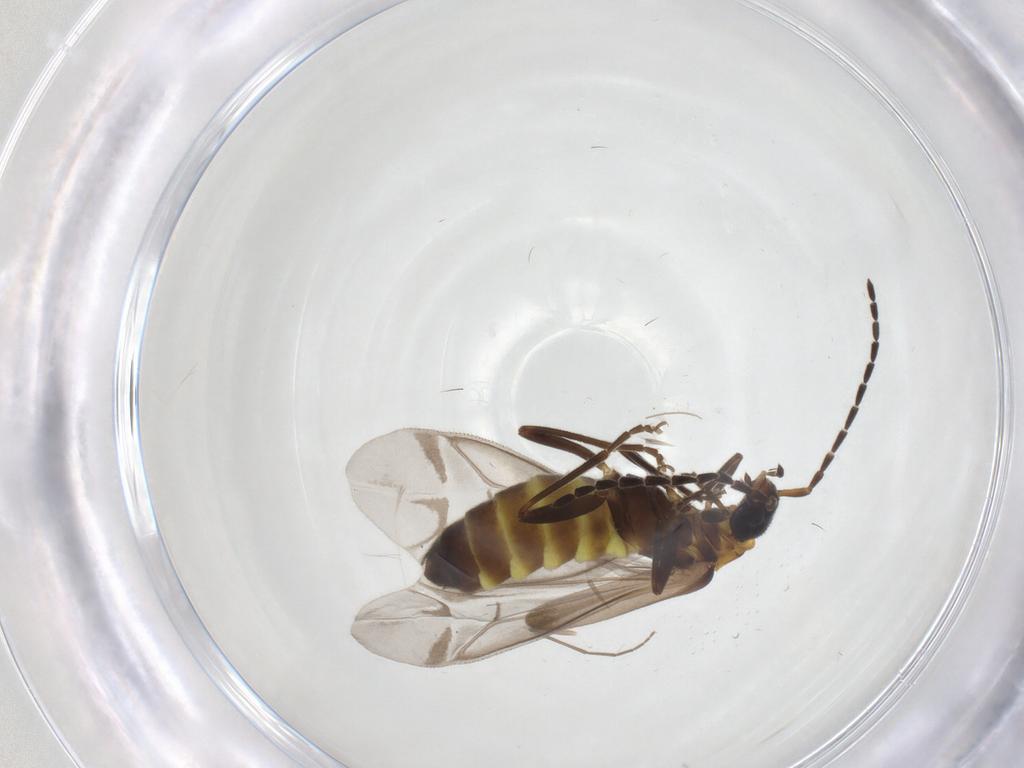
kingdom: Animalia
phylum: Arthropoda
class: Insecta
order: Coleoptera
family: Cantharidae
